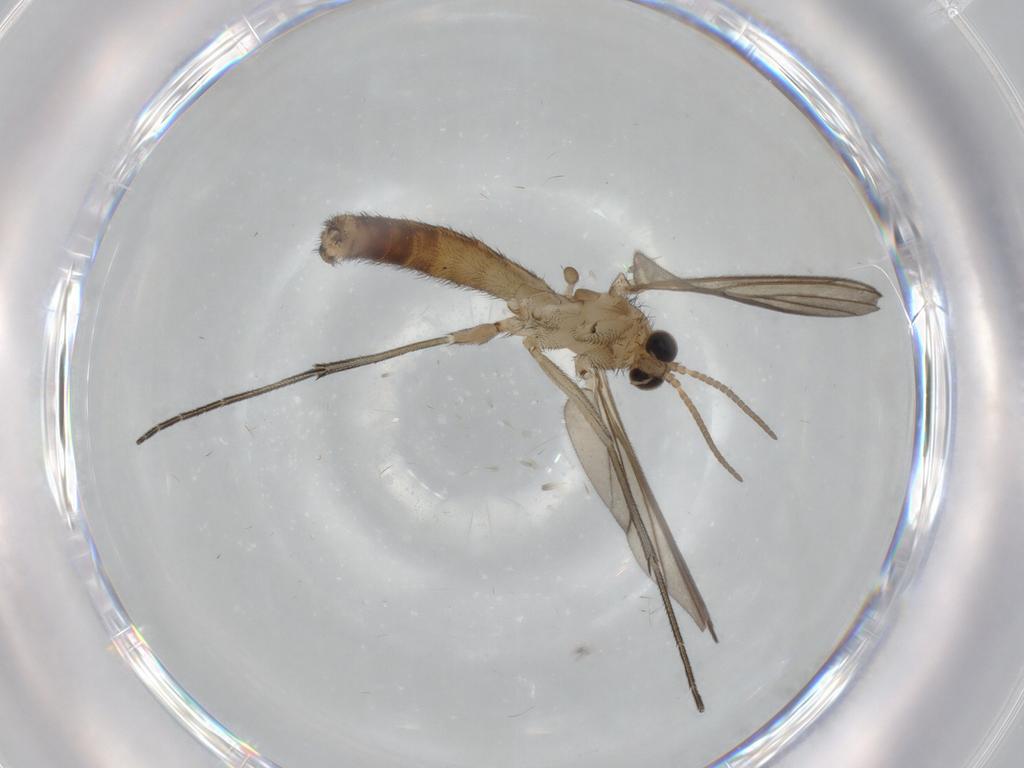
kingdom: Animalia
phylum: Arthropoda
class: Insecta
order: Diptera
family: Keroplatidae
